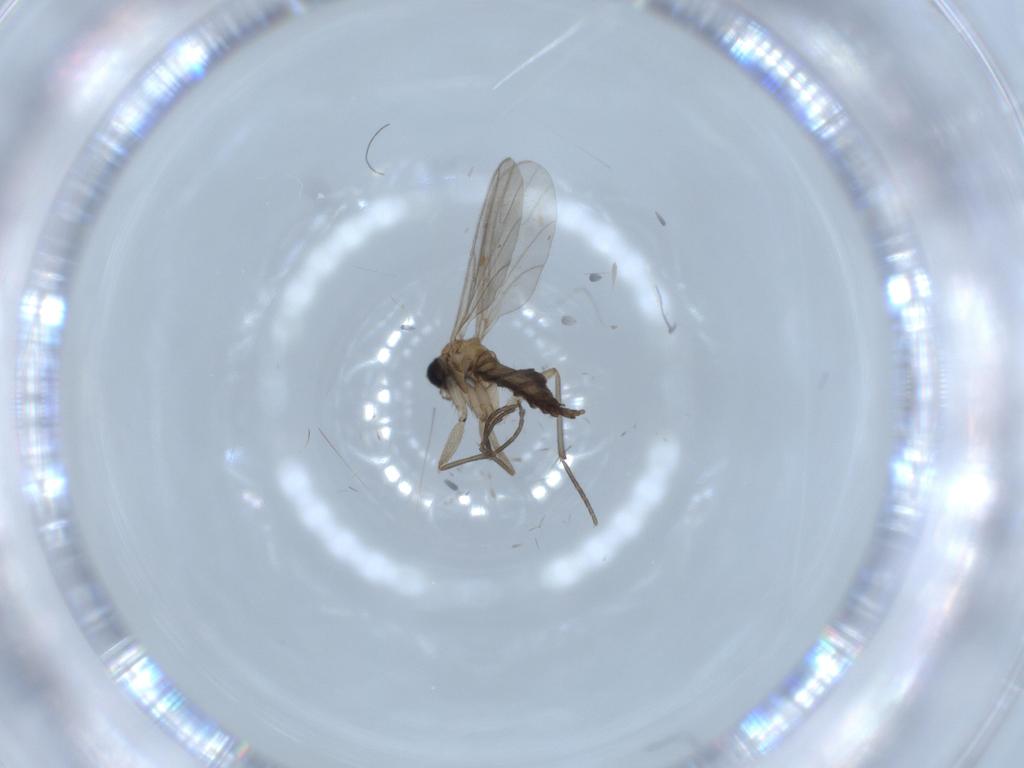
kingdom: Animalia
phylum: Arthropoda
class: Insecta
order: Diptera
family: Sciaridae
